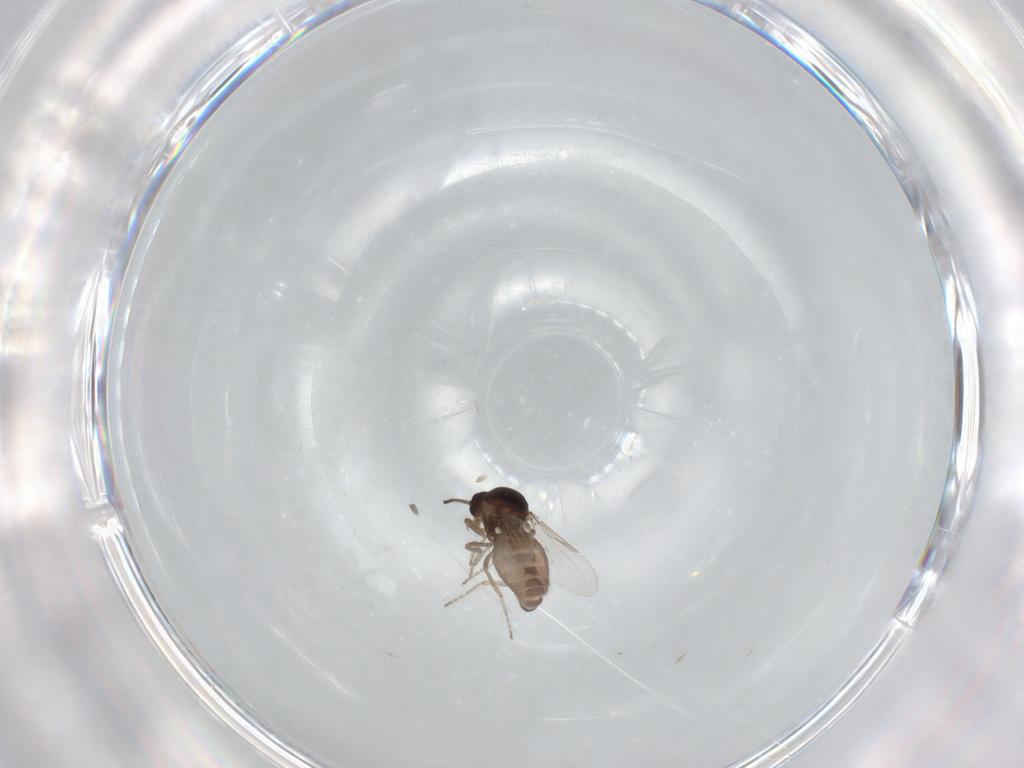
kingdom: Animalia
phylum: Arthropoda
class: Insecta
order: Diptera
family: Ceratopogonidae
